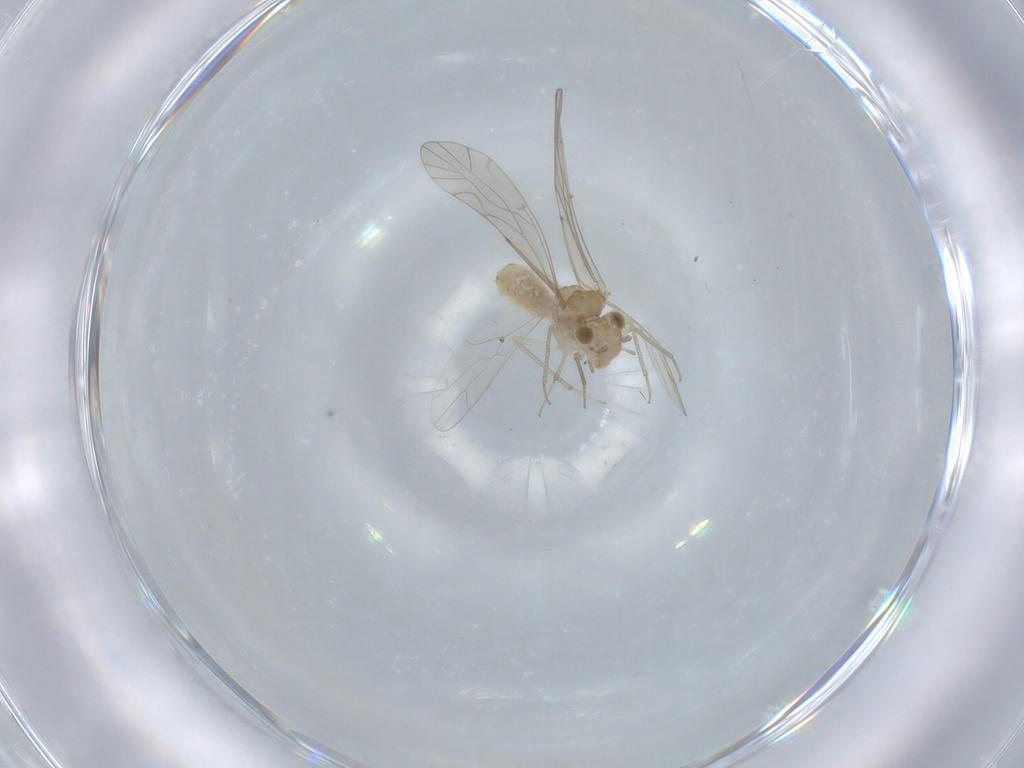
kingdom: Animalia
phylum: Arthropoda
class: Insecta
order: Psocodea
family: Lachesillidae
